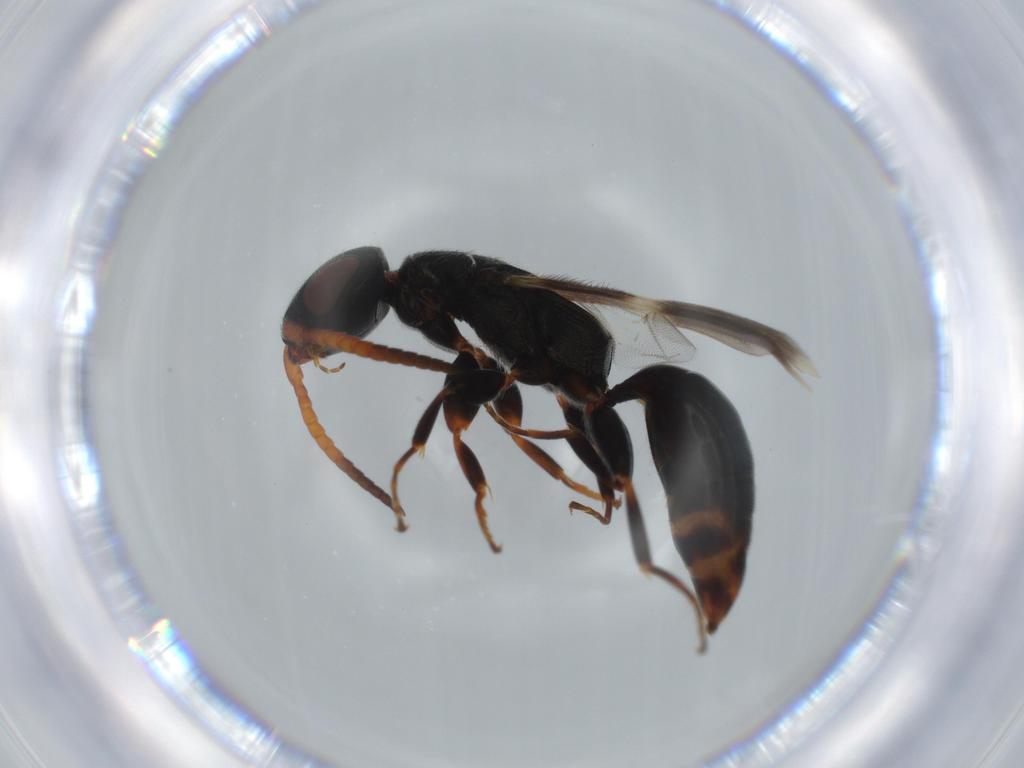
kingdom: Animalia
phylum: Arthropoda
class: Insecta
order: Hymenoptera
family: Bethylidae
